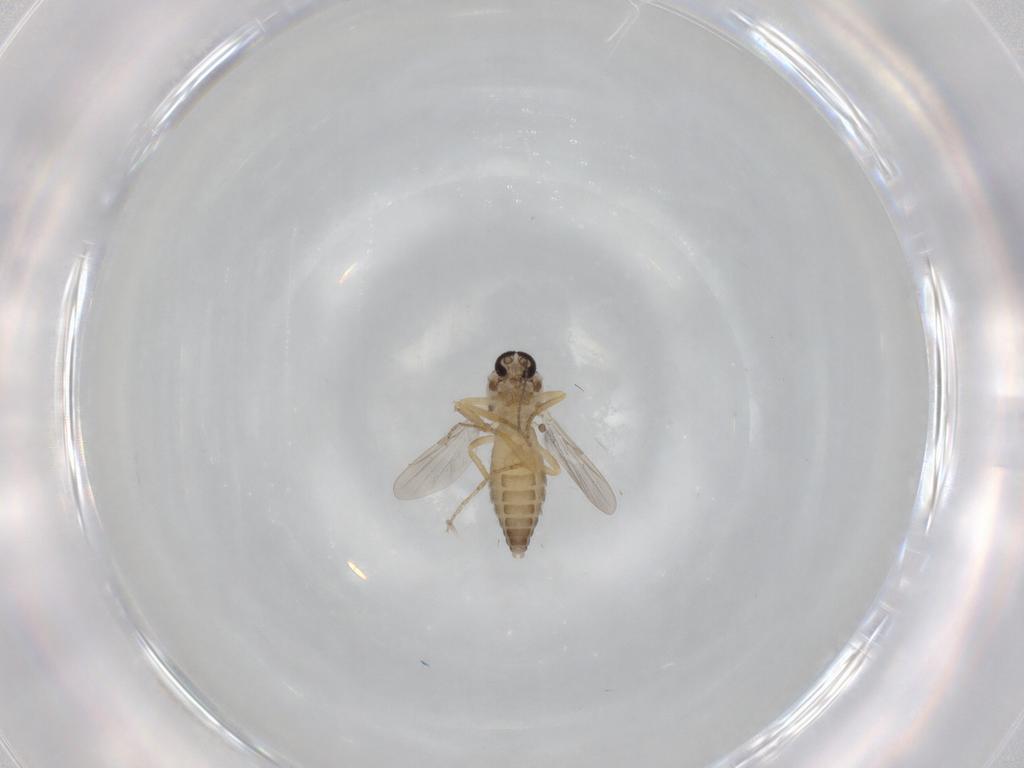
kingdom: Animalia
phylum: Arthropoda
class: Insecta
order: Diptera
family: Ceratopogonidae
